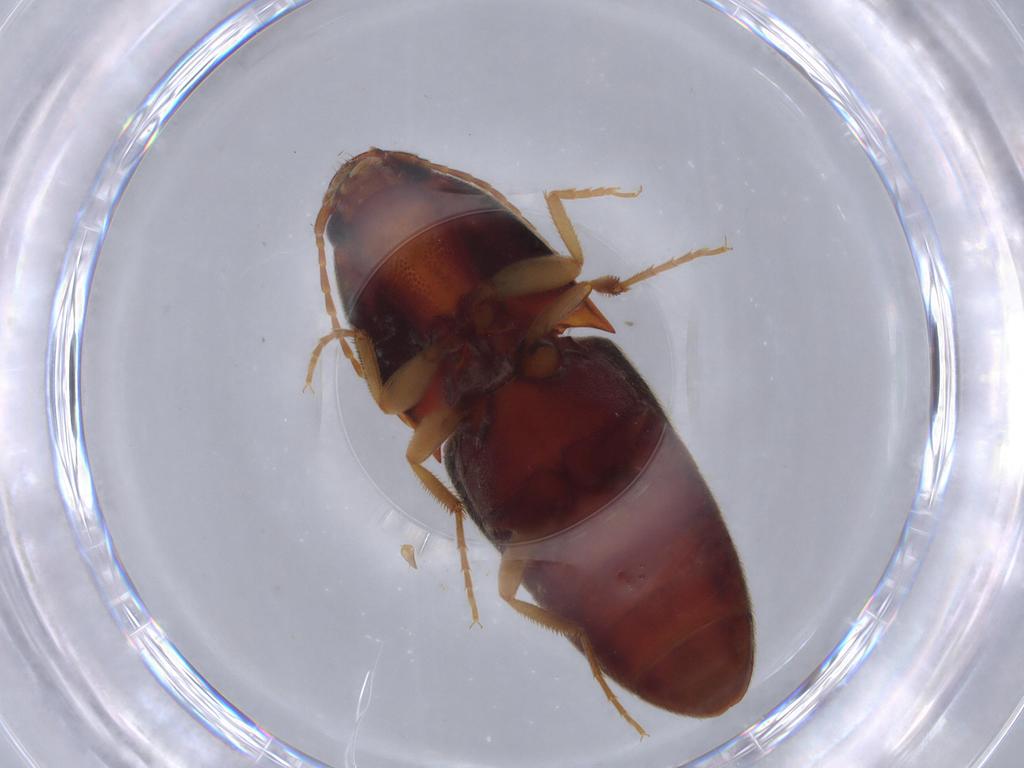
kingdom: Animalia
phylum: Arthropoda
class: Insecta
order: Coleoptera
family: Elateridae
